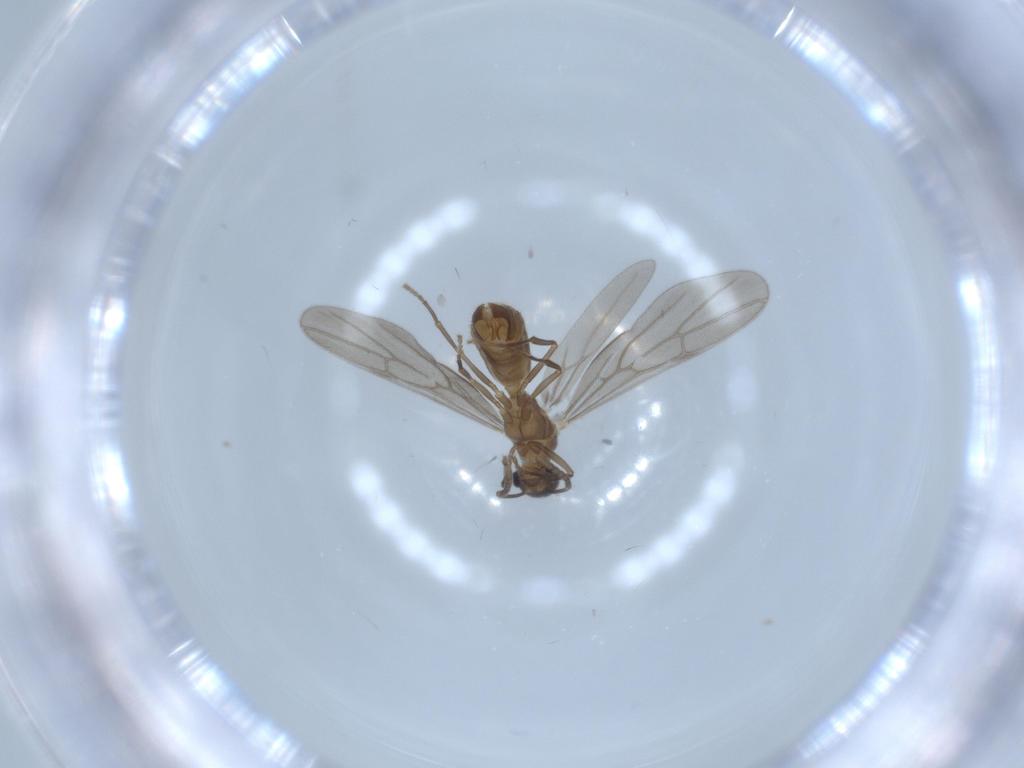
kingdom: Animalia
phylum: Arthropoda
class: Insecta
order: Hymenoptera
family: Formicidae
